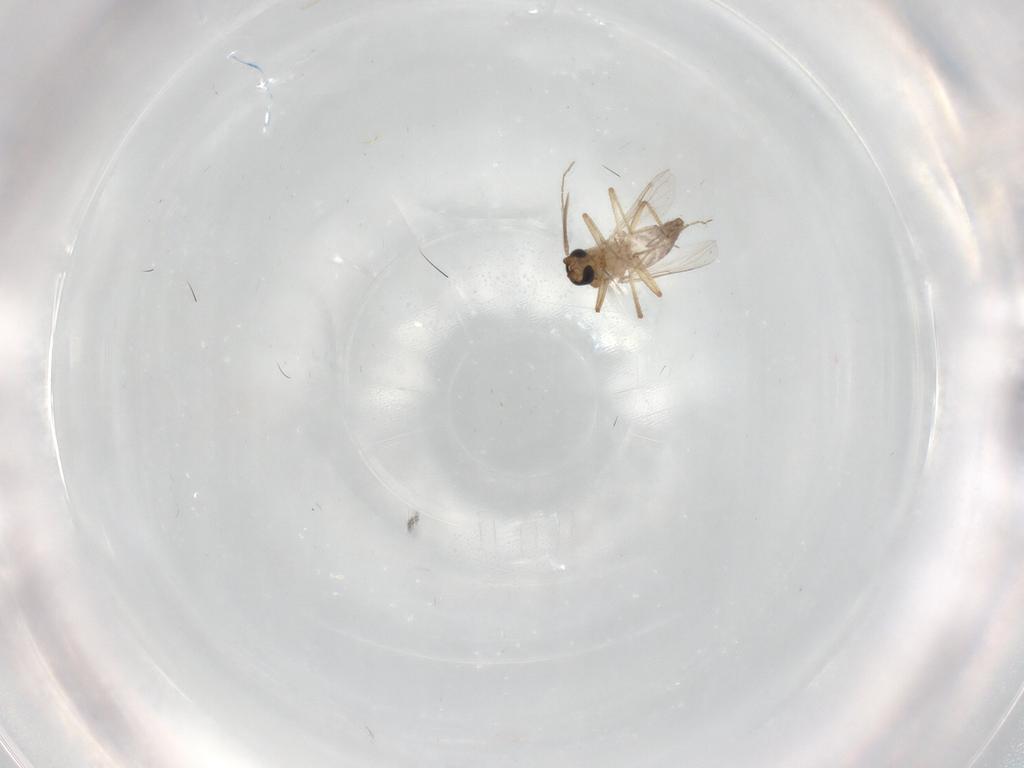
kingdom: Animalia
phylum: Arthropoda
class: Insecta
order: Diptera
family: Ceratopogonidae
